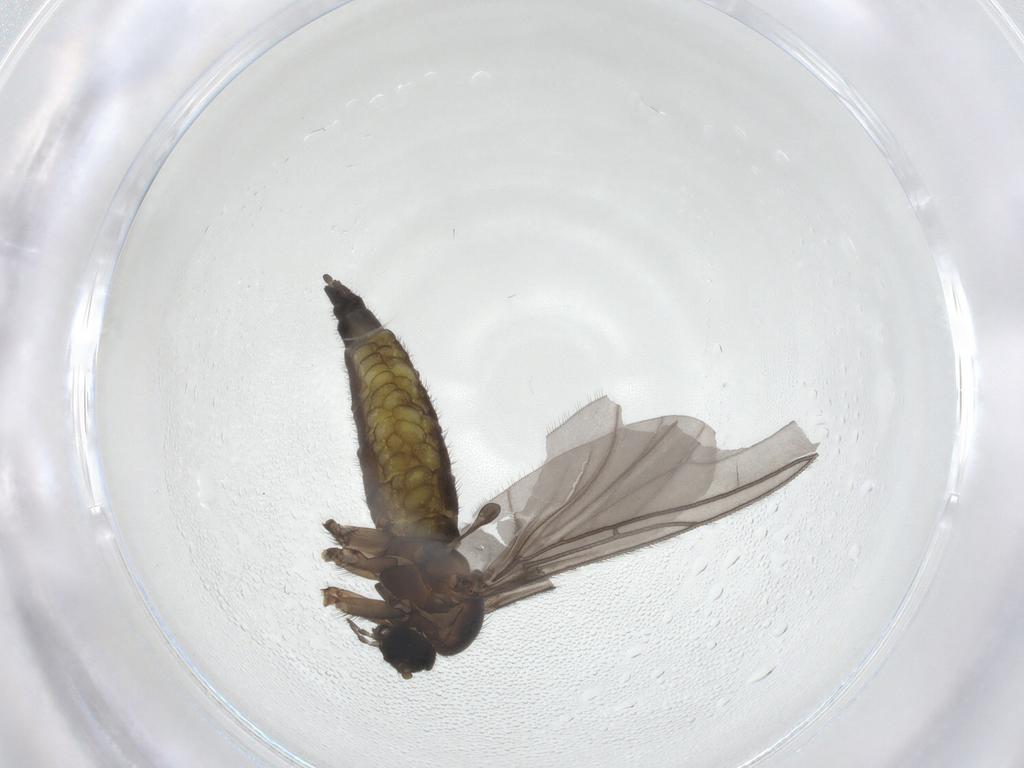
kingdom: Animalia
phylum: Arthropoda
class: Insecta
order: Diptera
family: Sciaridae
